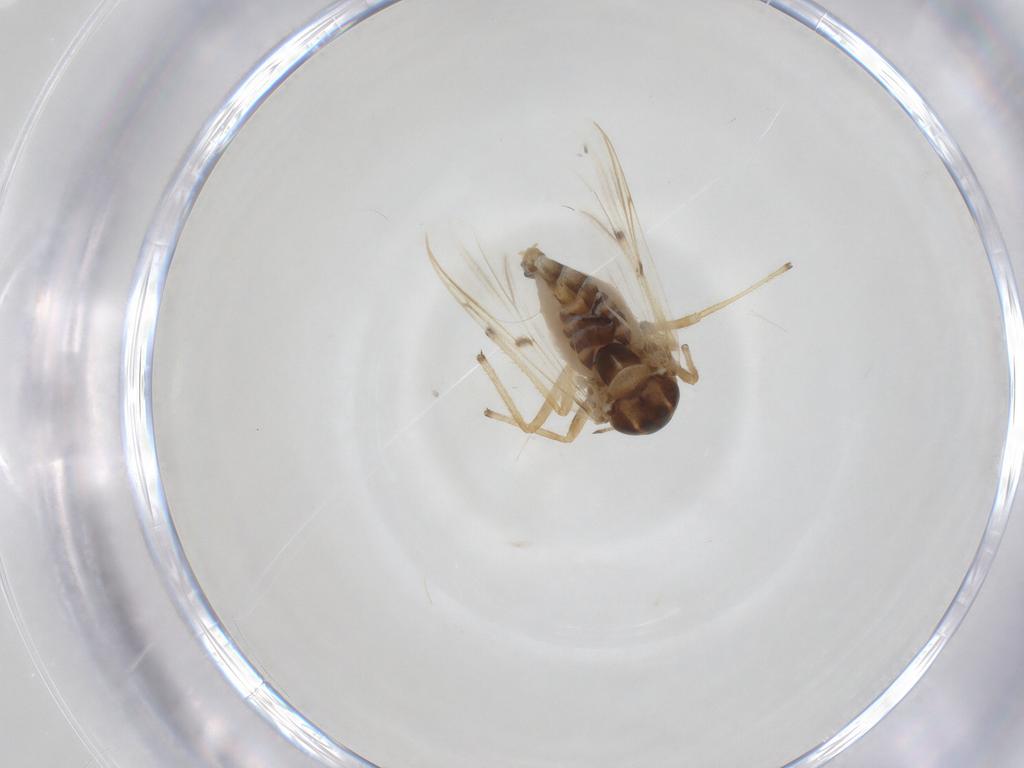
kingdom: Animalia
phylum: Arthropoda
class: Insecta
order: Diptera
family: Chironomidae
